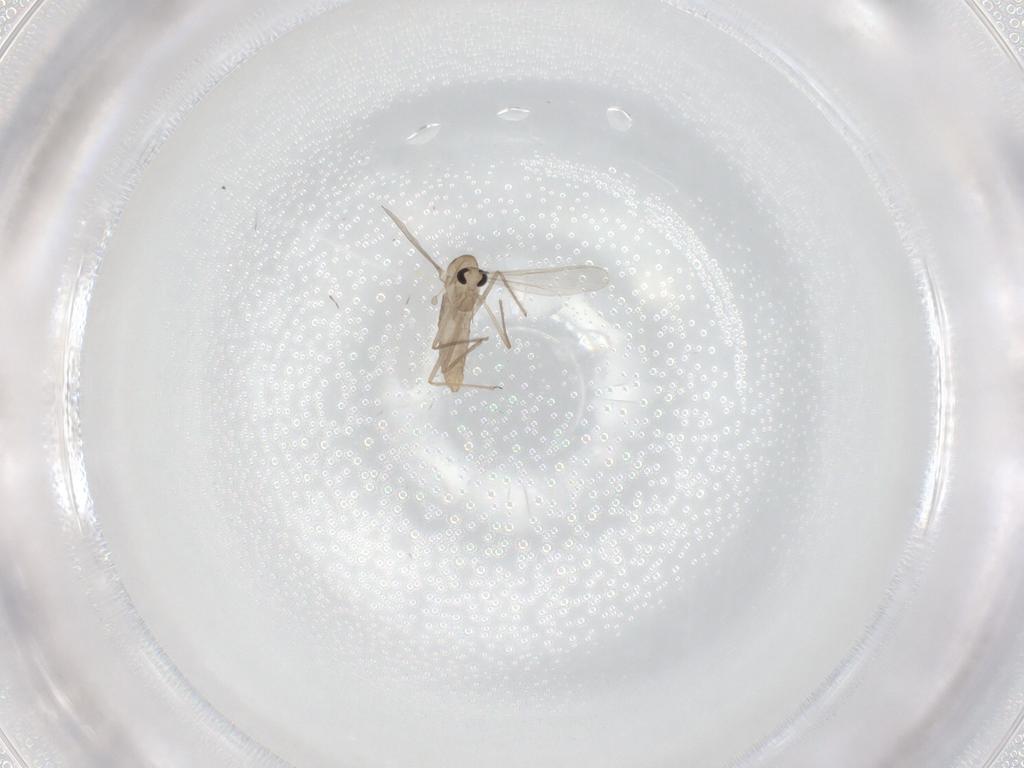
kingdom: Animalia
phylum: Arthropoda
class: Insecta
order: Diptera
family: Chironomidae
